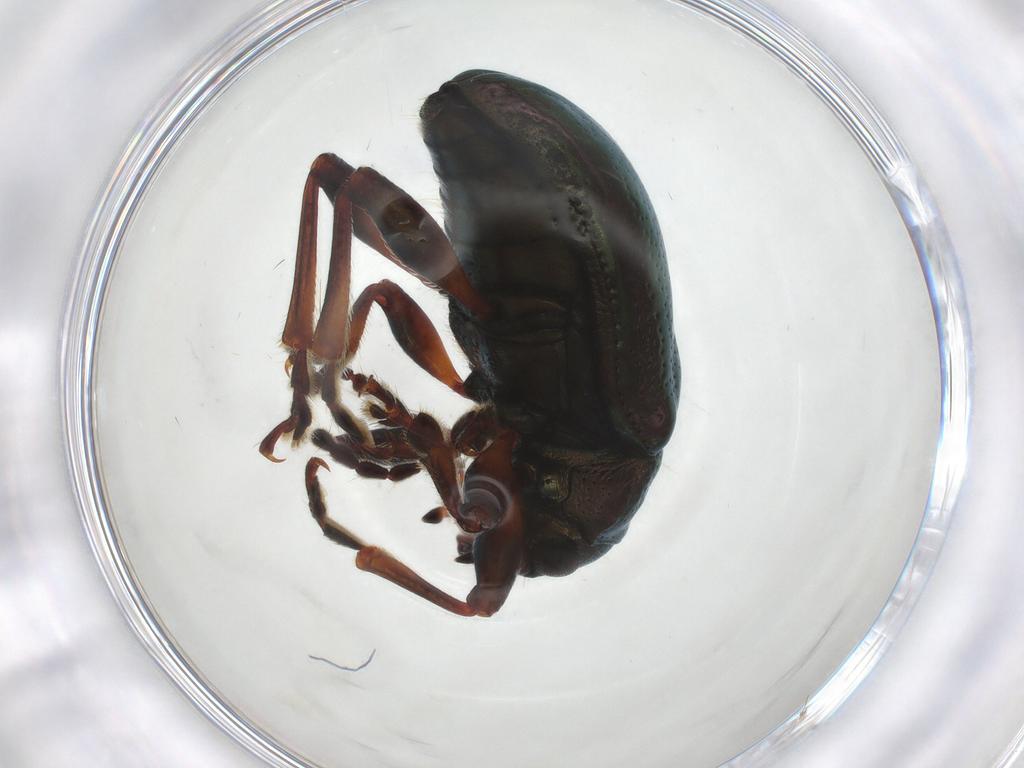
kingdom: Animalia
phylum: Arthropoda
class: Insecta
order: Coleoptera
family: Chrysomelidae
